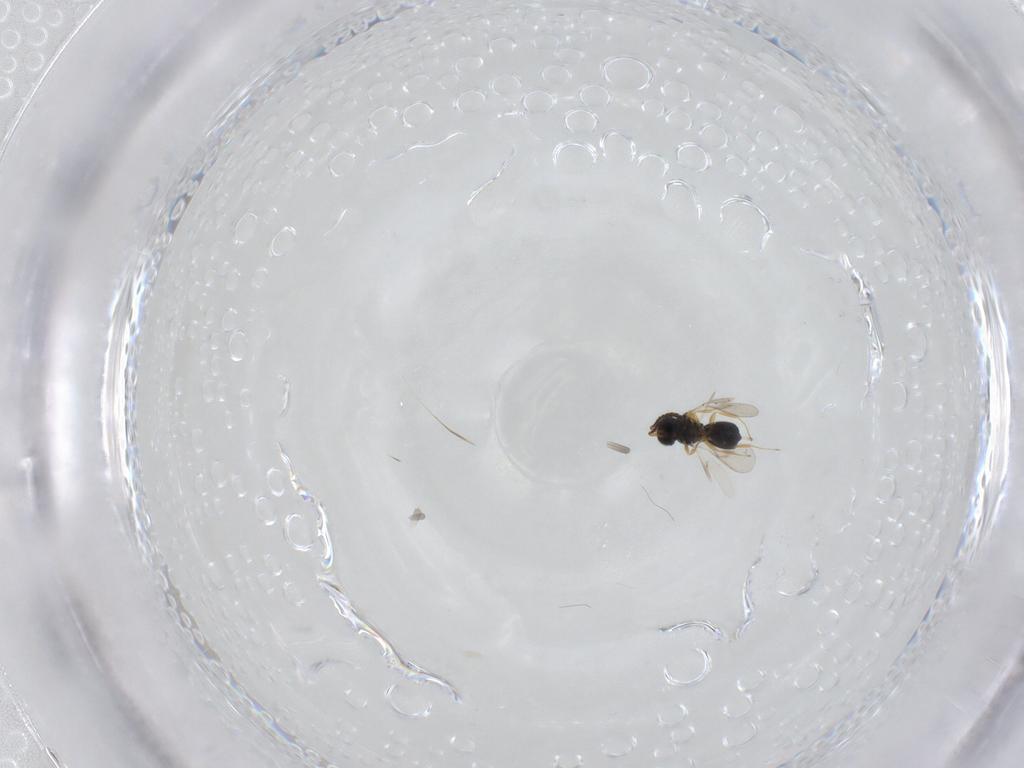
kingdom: Animalia
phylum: Arthropoda
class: Insecta
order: Hymenoptera
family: Scelionidae
